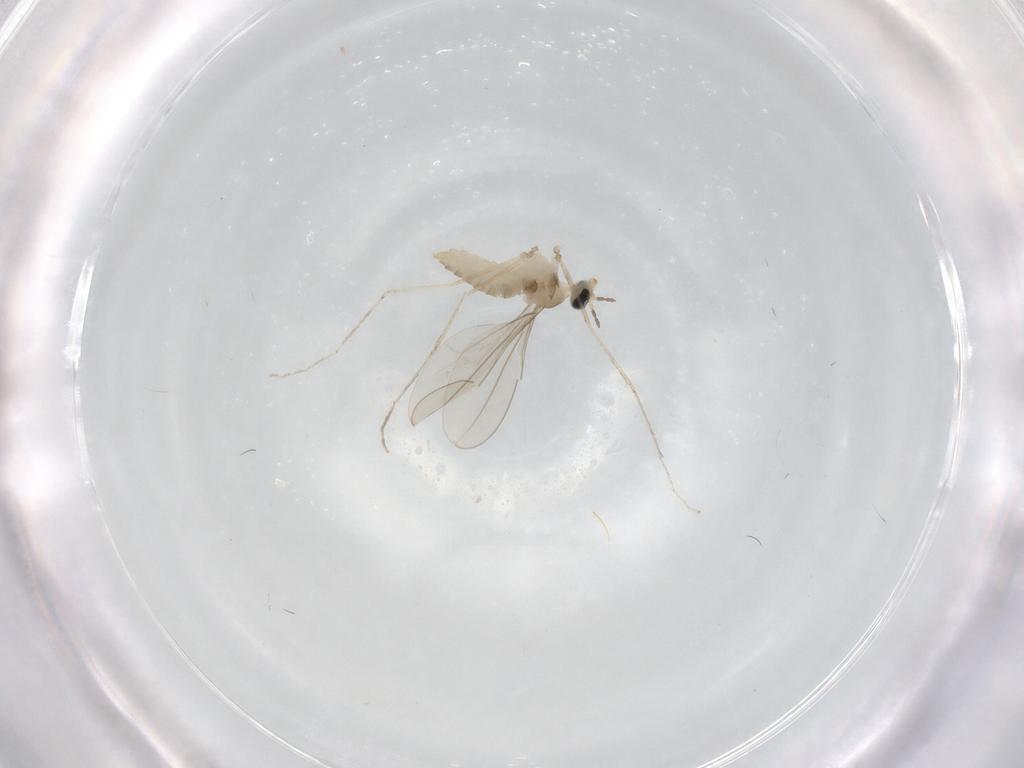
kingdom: Animalia
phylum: Arthropoda
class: Insecta
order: Diptera
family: Cecidomyiidae
